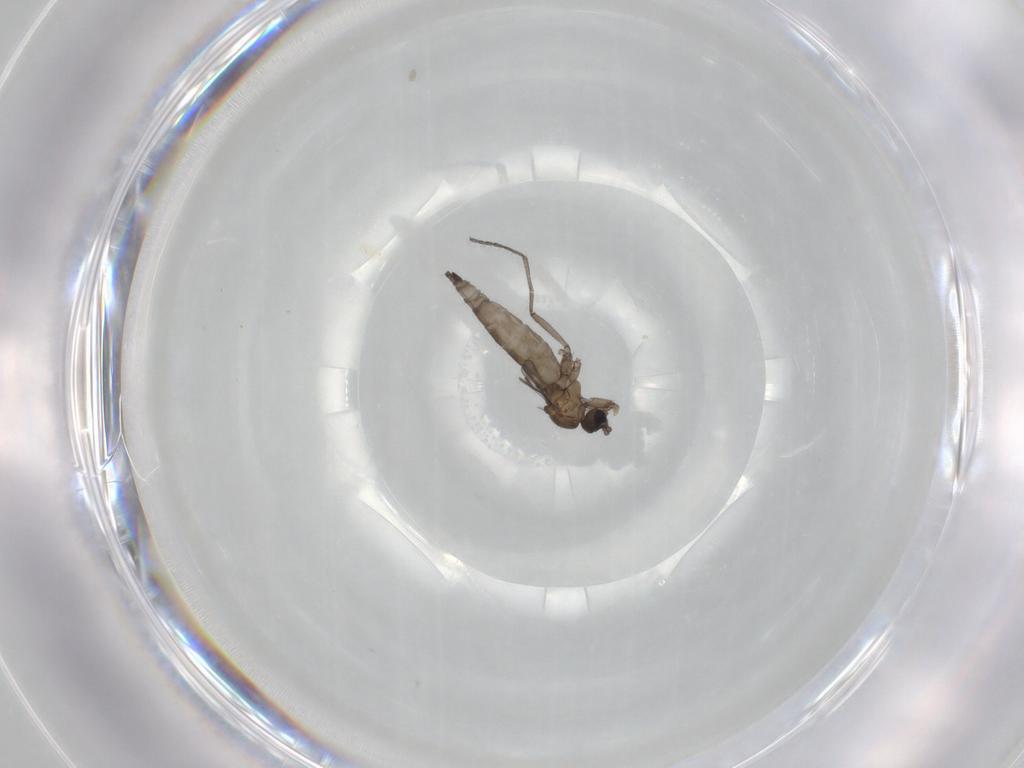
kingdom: Animalia
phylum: Arthropoda
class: Insecta
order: Diptera
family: Sciaridae
